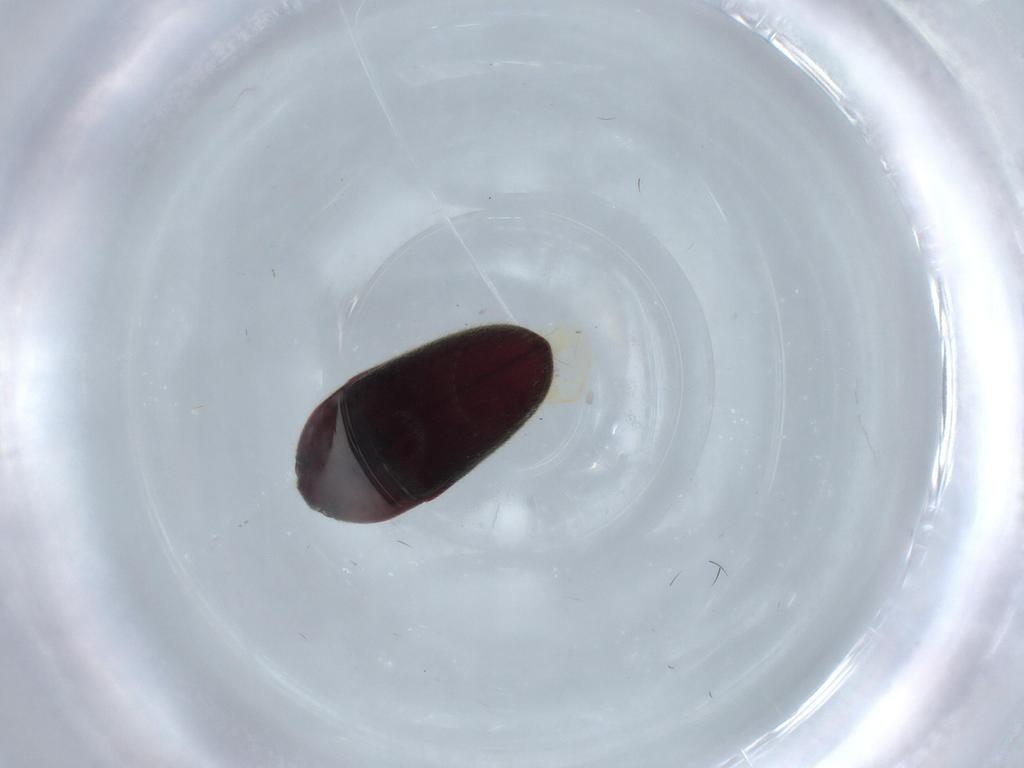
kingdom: Animalia
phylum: Arthropoda
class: Insecta
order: Coleoptera
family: Throscidae
